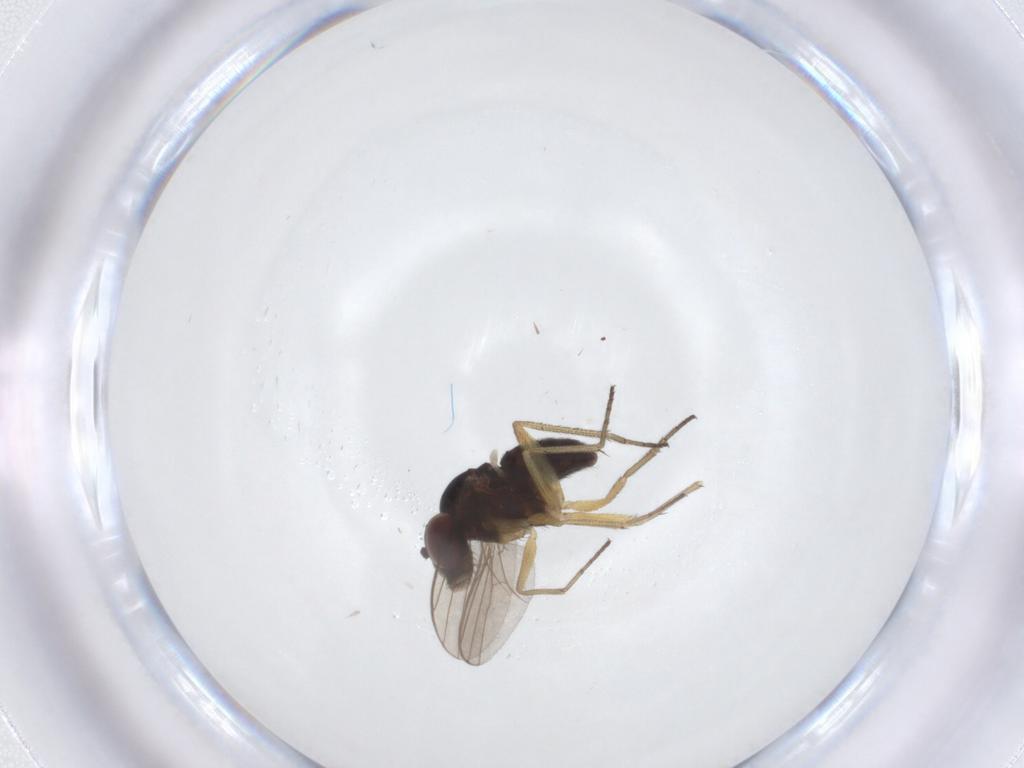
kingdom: Animalia
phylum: Arthropoda
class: Insecta
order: Diptera
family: Dolichopodidae
